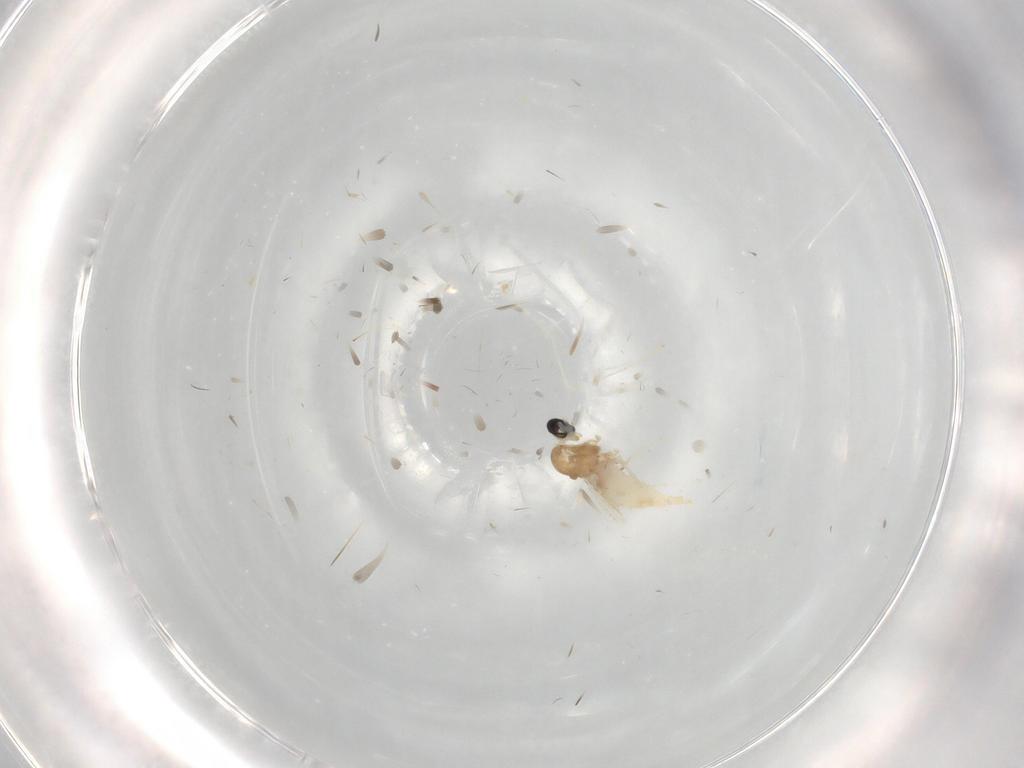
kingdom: Animalia
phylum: Arthropoda
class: Insecta
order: Diptera
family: Cecidomyiidae
